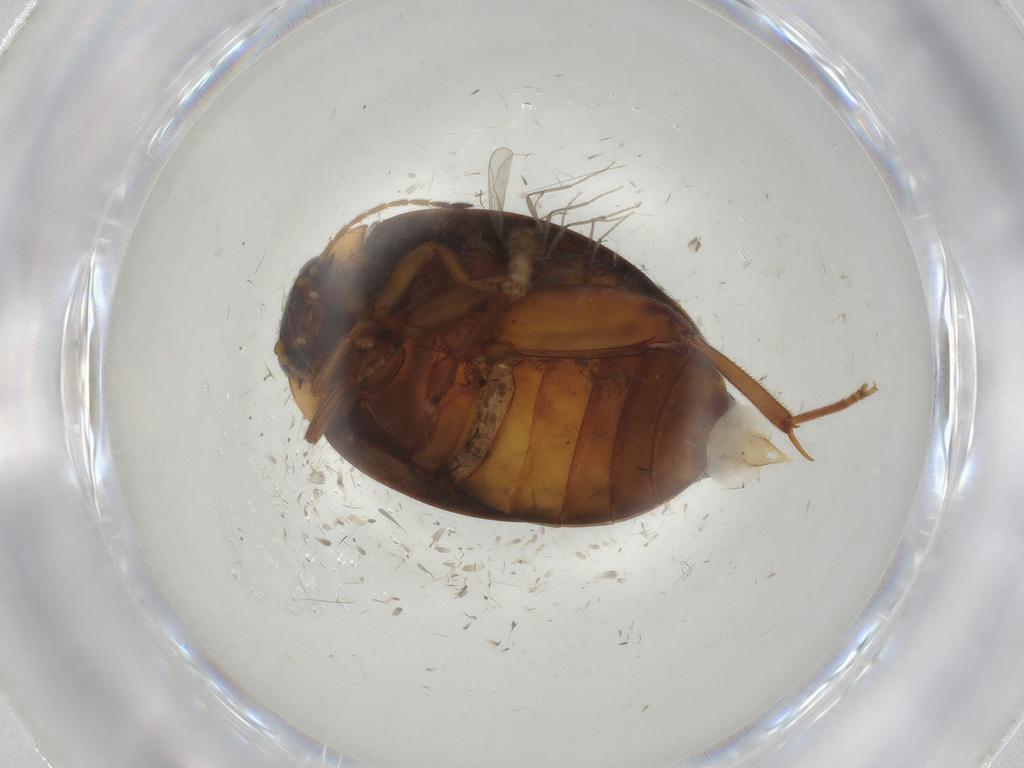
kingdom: Animalia
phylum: Arthropoda
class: Insecta
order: Diptera
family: Chironomidae
